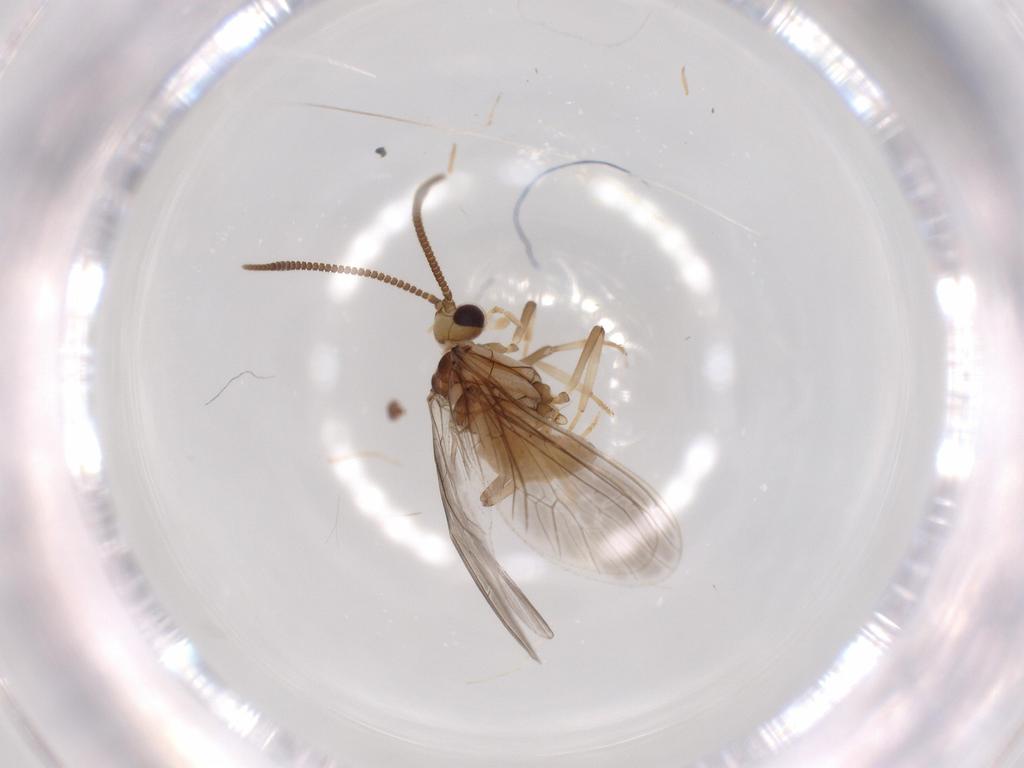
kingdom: Animalia
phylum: Arthropoda
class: Insecta
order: Neuroptera
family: Coniopterygidae
